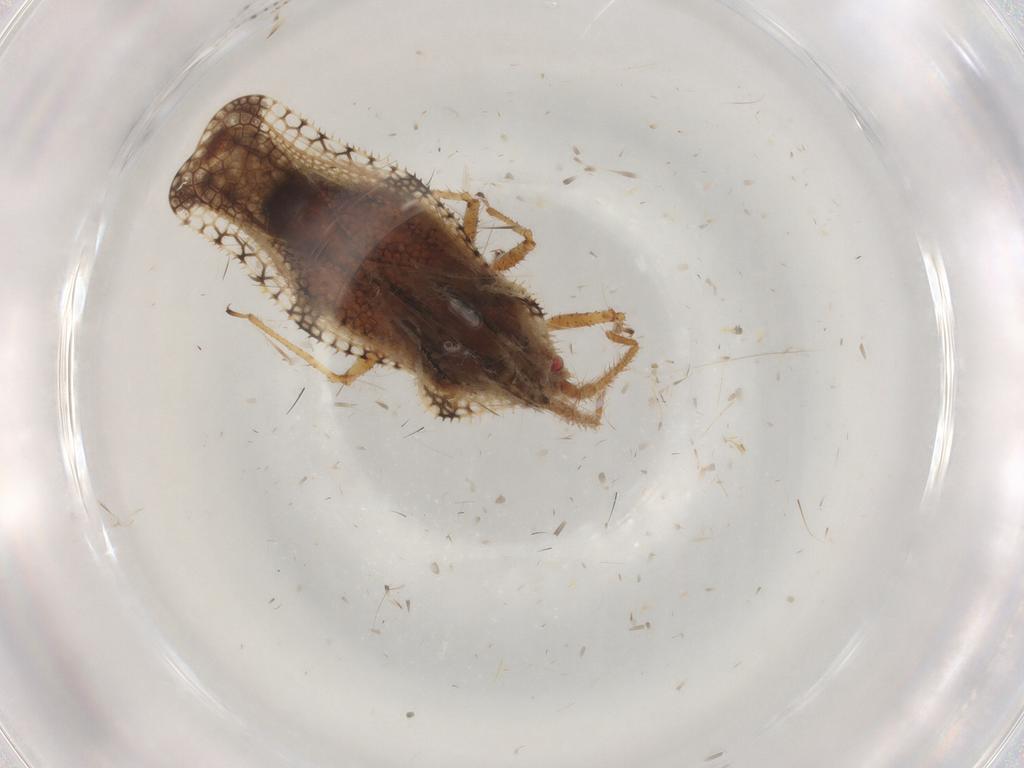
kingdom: Animalia
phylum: Arthropoda
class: Insecta
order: Hemiptera
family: Tingidae
